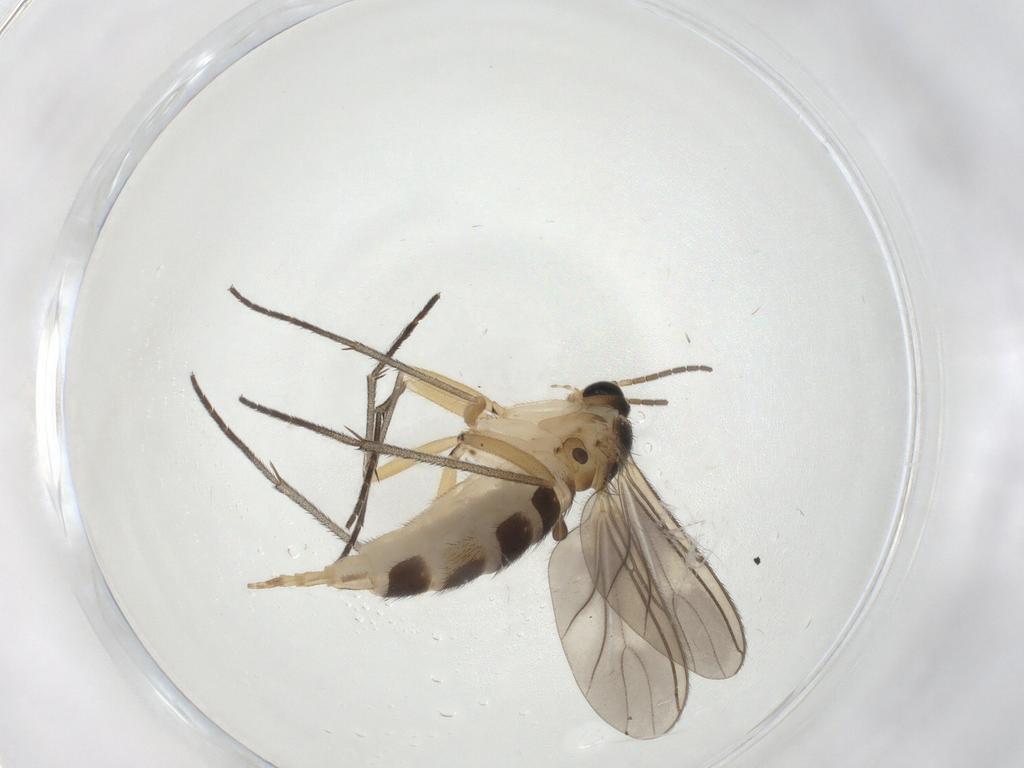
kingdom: Animalia
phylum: Arthropoda
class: Insecta
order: Diptera
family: Sciaridae
